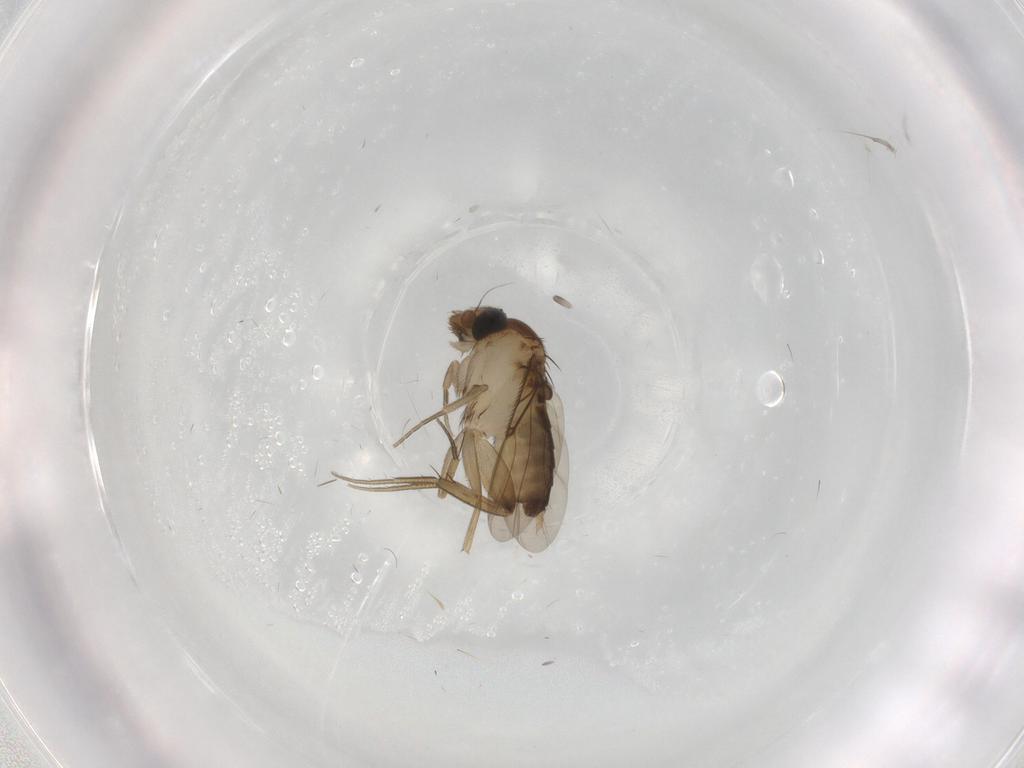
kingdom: Animalia
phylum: Arthropoda
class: Insecta
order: Diptera
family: Phoridae
